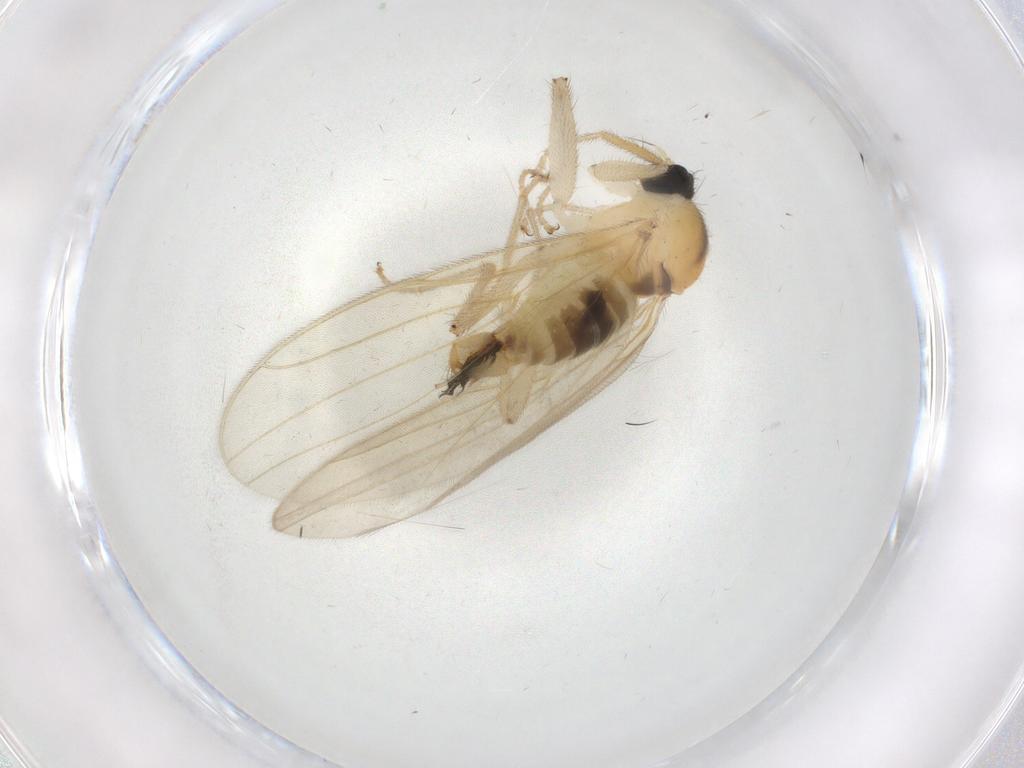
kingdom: Animalia
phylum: Arthropoda
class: Insecta
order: Diptera
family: Hybotidae
